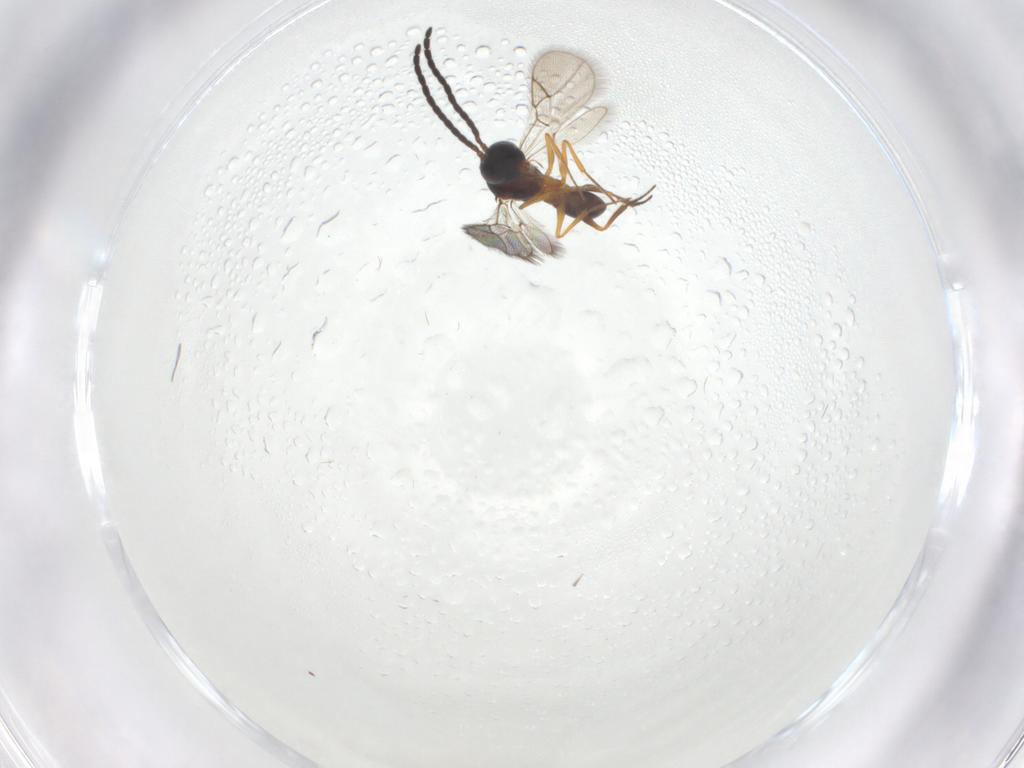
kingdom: Animalia
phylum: Arthropoda
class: Insecta
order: Hymenoptera
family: Figitidae
